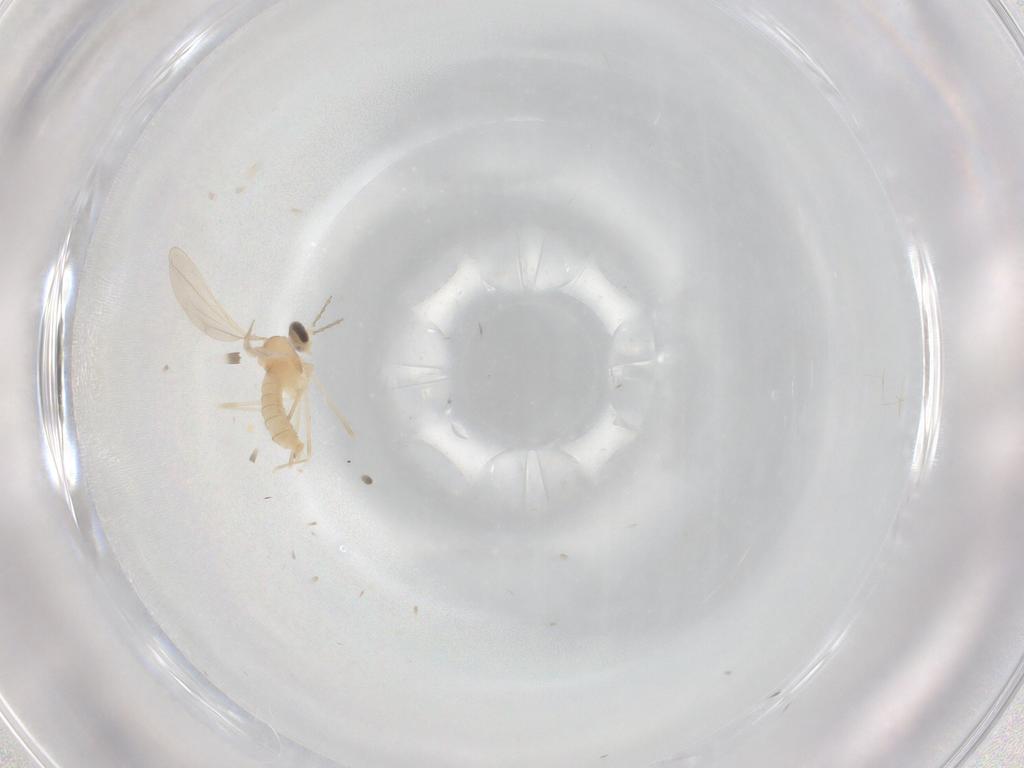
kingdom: Animalia
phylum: Arthropoda
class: Insecta
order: Diptera
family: Cecidomyiidae
